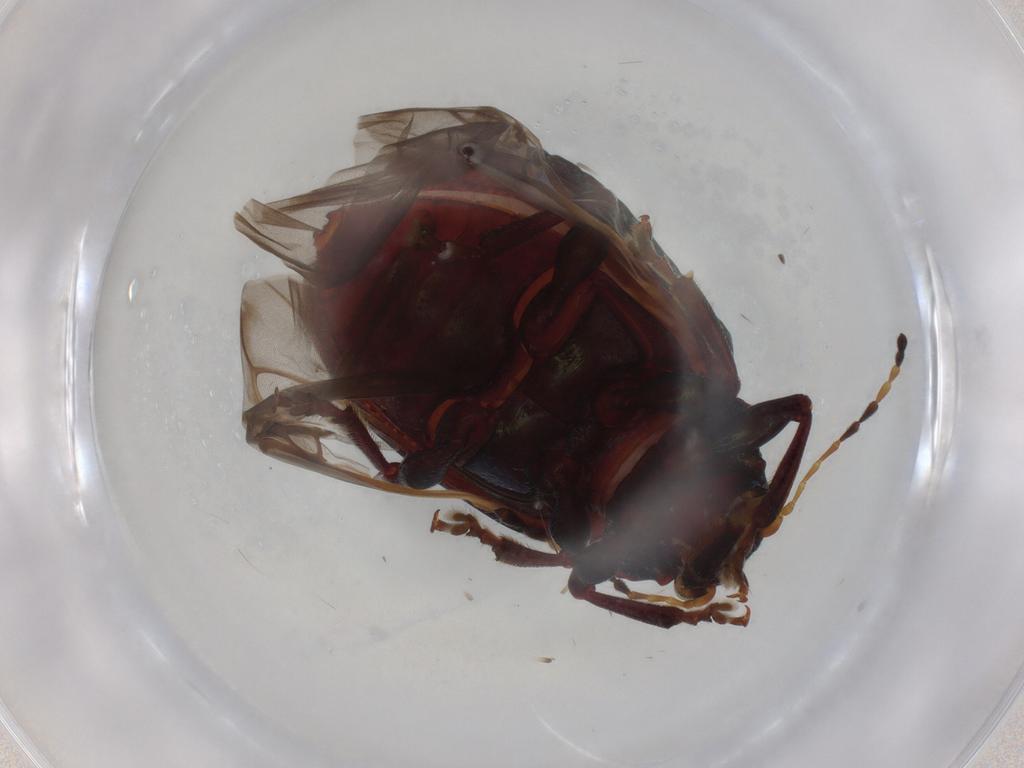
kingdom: Animalia
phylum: Arthropoda
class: Insecta
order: Coleoptera
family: Chrysomelidae
